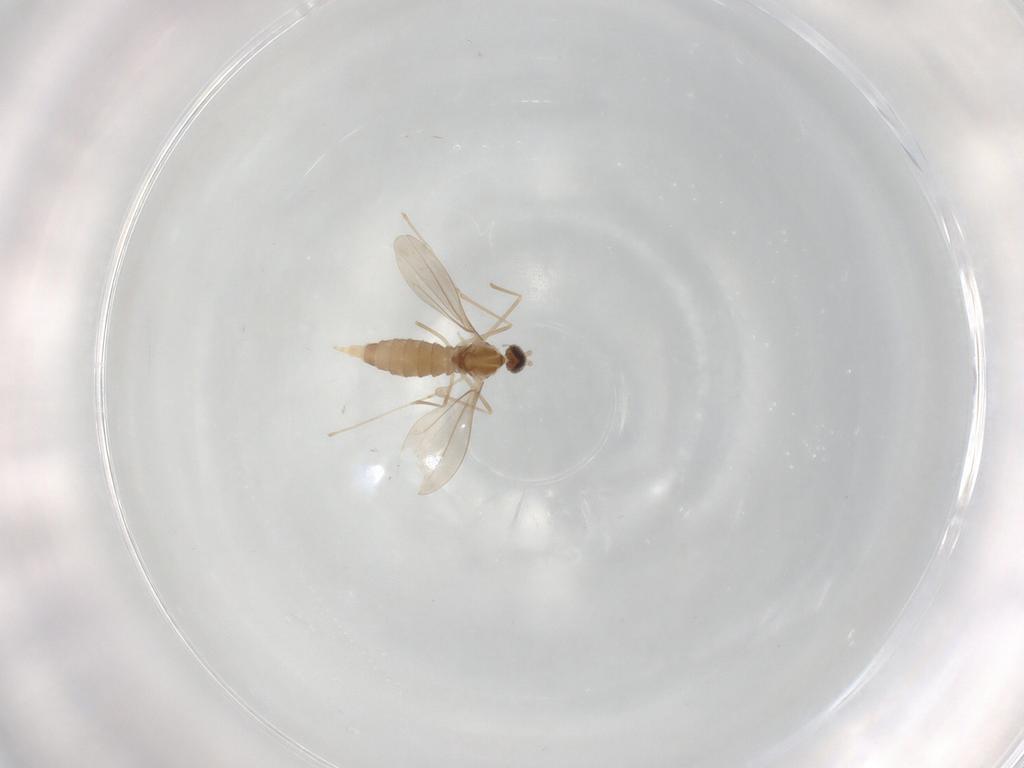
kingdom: Animalia
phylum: Arthropoda
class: Insecta
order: Diptera
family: Cecidomyiidae
